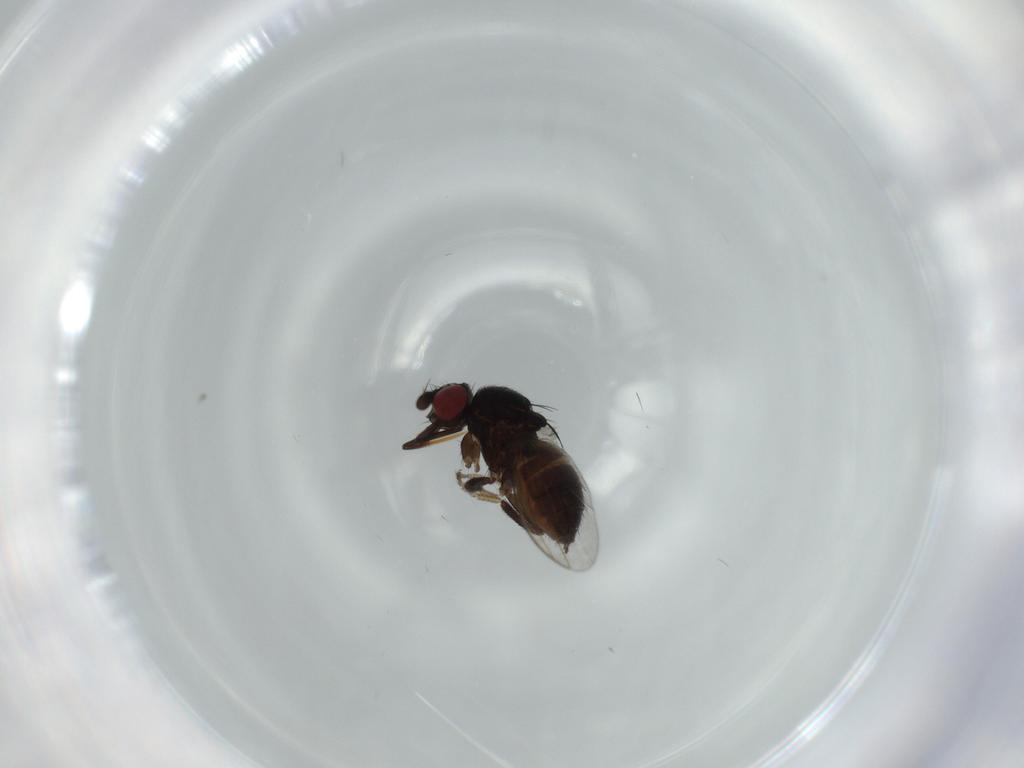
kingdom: Animalia
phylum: Arthropoda
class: Insecta
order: Diptera
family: Milichiidae
